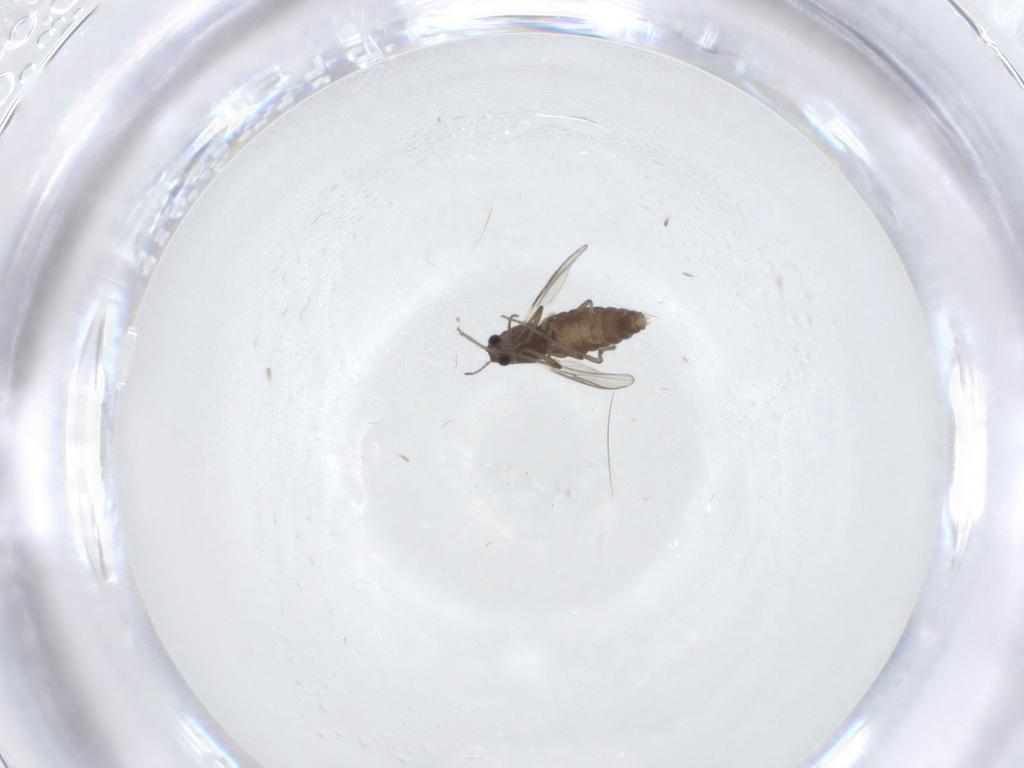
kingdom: Animalia
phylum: Arthropoda
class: Insecta
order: Diptera
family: Chironomidae
